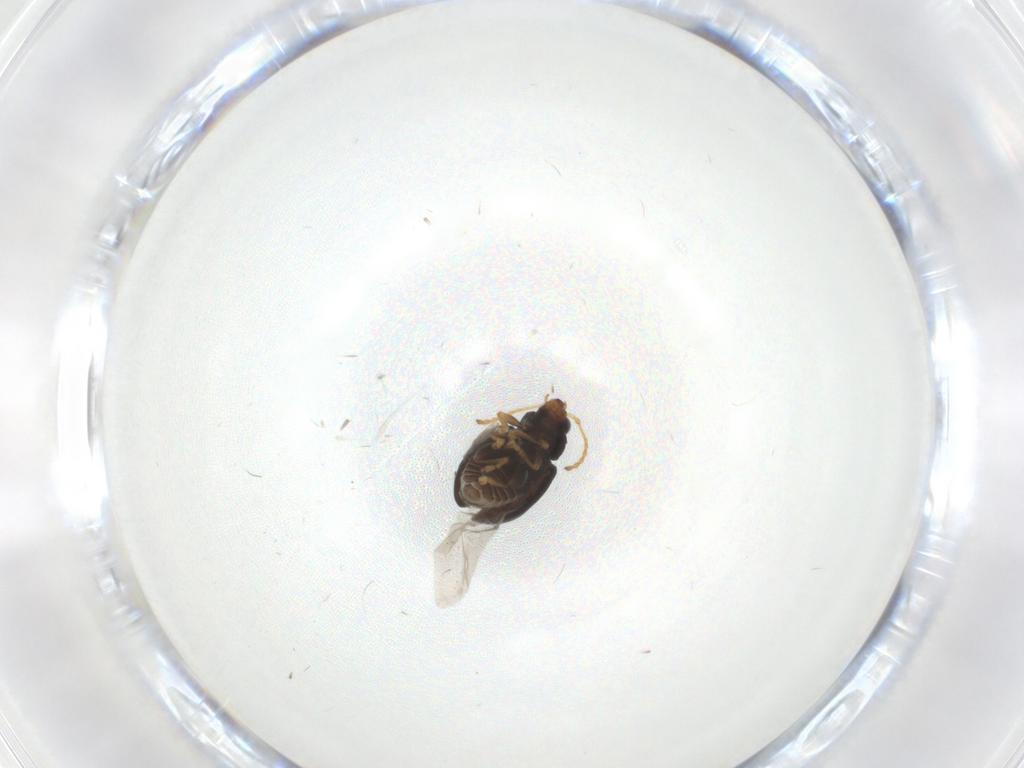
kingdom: Animalia
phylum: Arthropoda
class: Insecta
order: Coleoptera
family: Chrysomelidae
